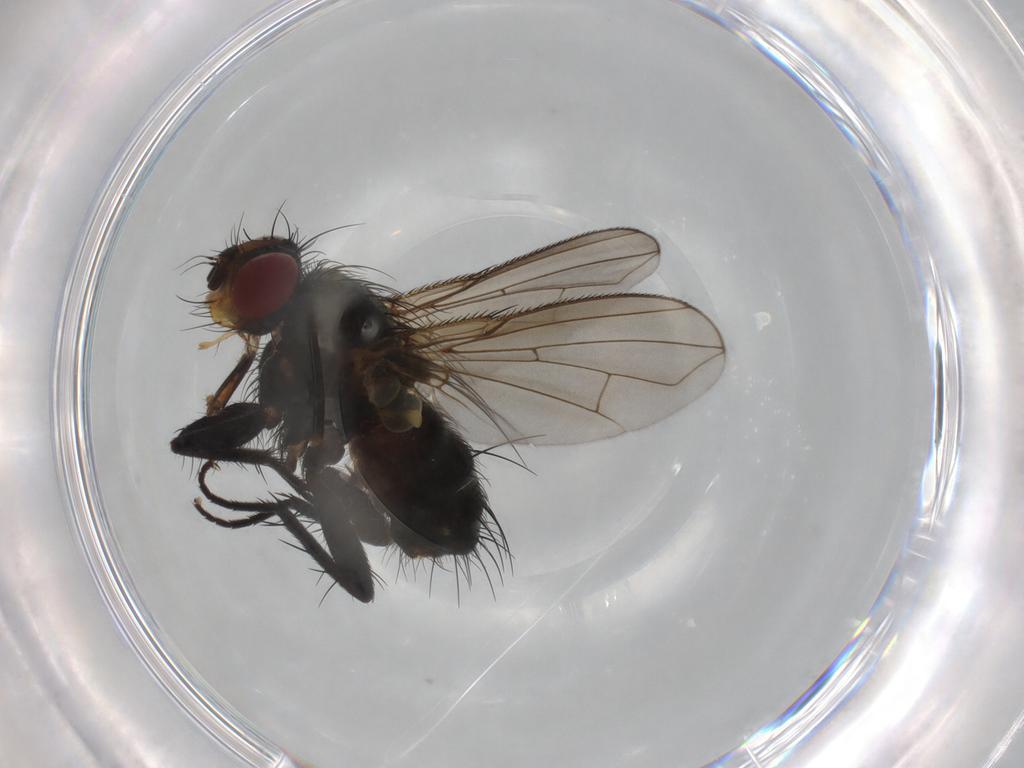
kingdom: Animalia
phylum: Arthropoda
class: Insecta
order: Diptera
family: Tachinidae
